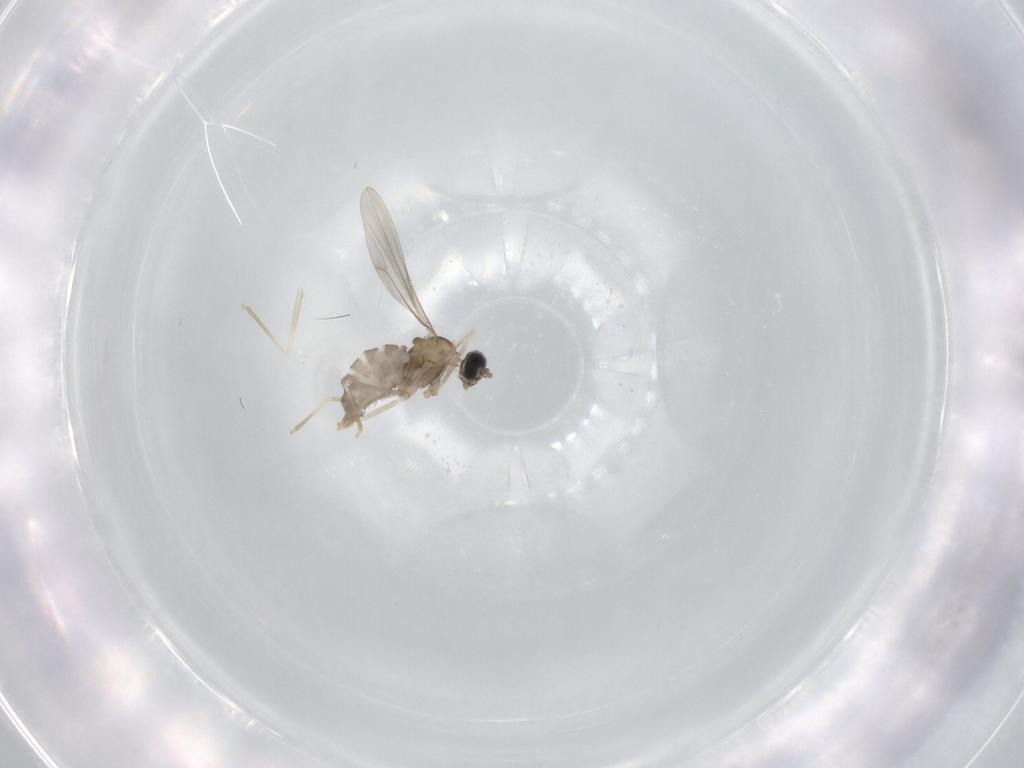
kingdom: Animalia
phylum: Arthropoda
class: Insecta
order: Diptera
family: Cecidomyiidae
